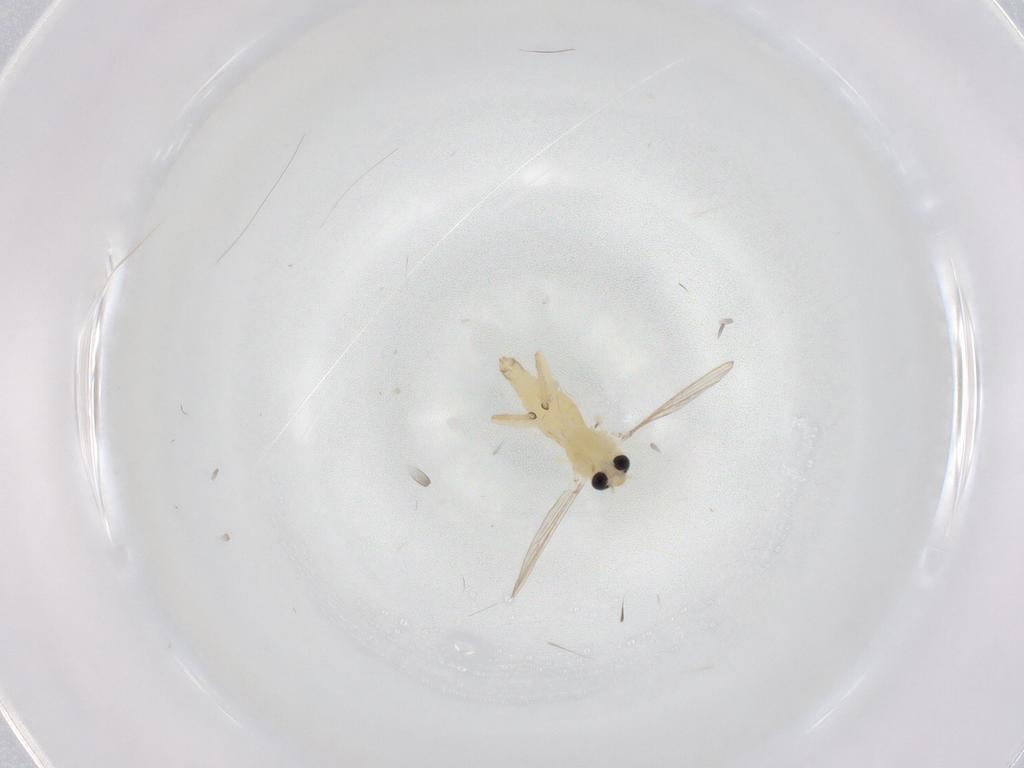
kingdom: Animalia
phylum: Arthropoda
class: Insecta
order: Diptera
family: Chironomidae
